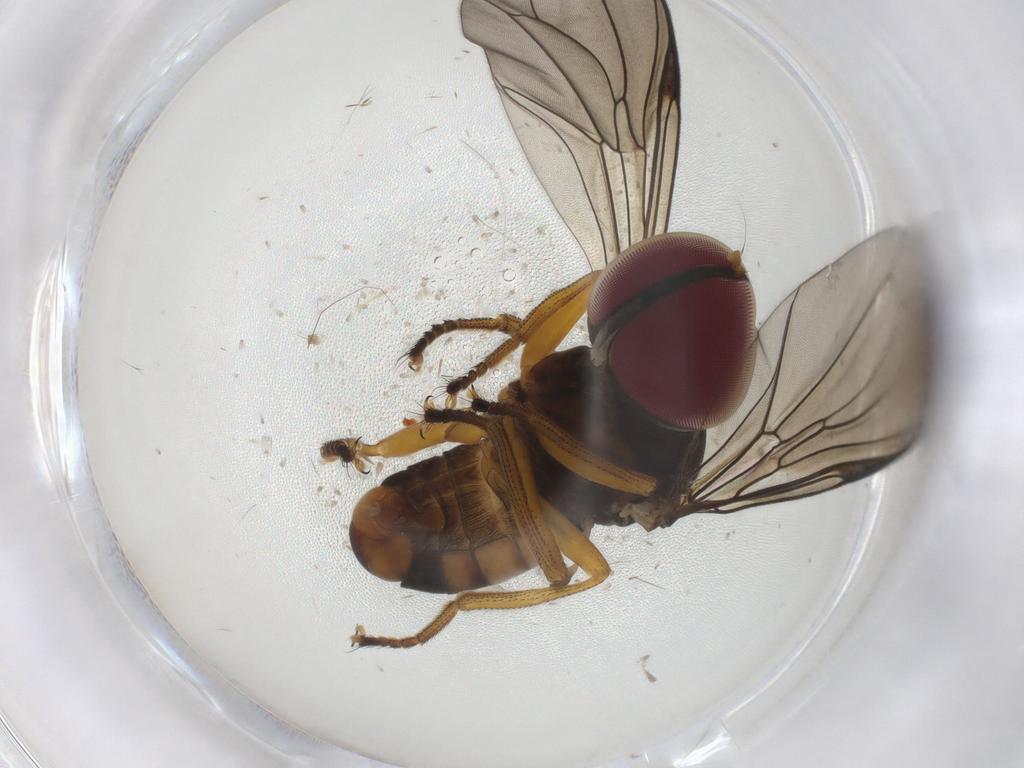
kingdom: Animalia
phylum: Arthropoda
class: Insecta
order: Diptera
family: Pipunculidae
